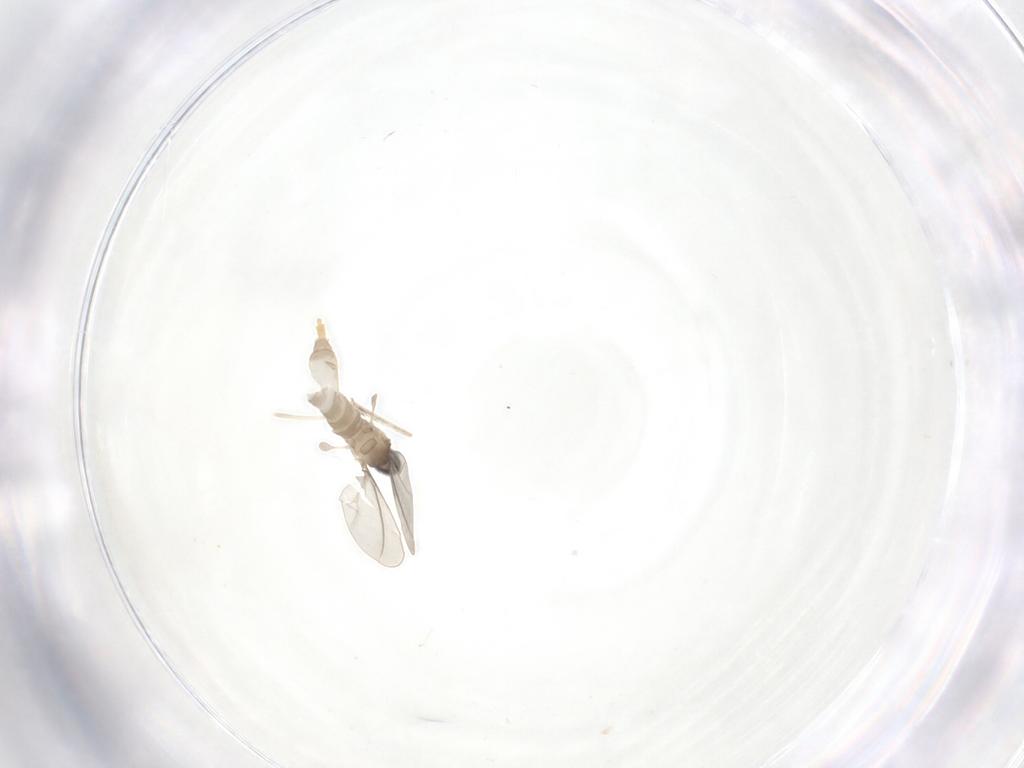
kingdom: Animalia
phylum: Arthropoda
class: Insecta
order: Diptera
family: Cecidomyiidae
